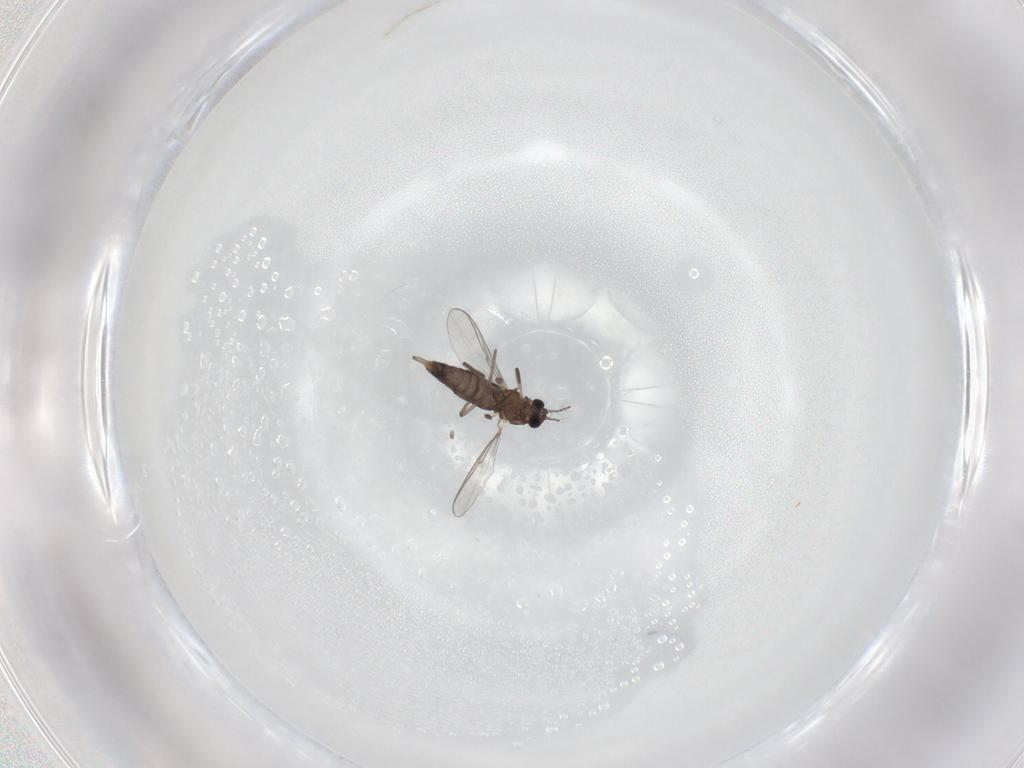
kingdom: Animalia
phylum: Arthropoda
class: Insecta
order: Diptera
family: Chironomidae
